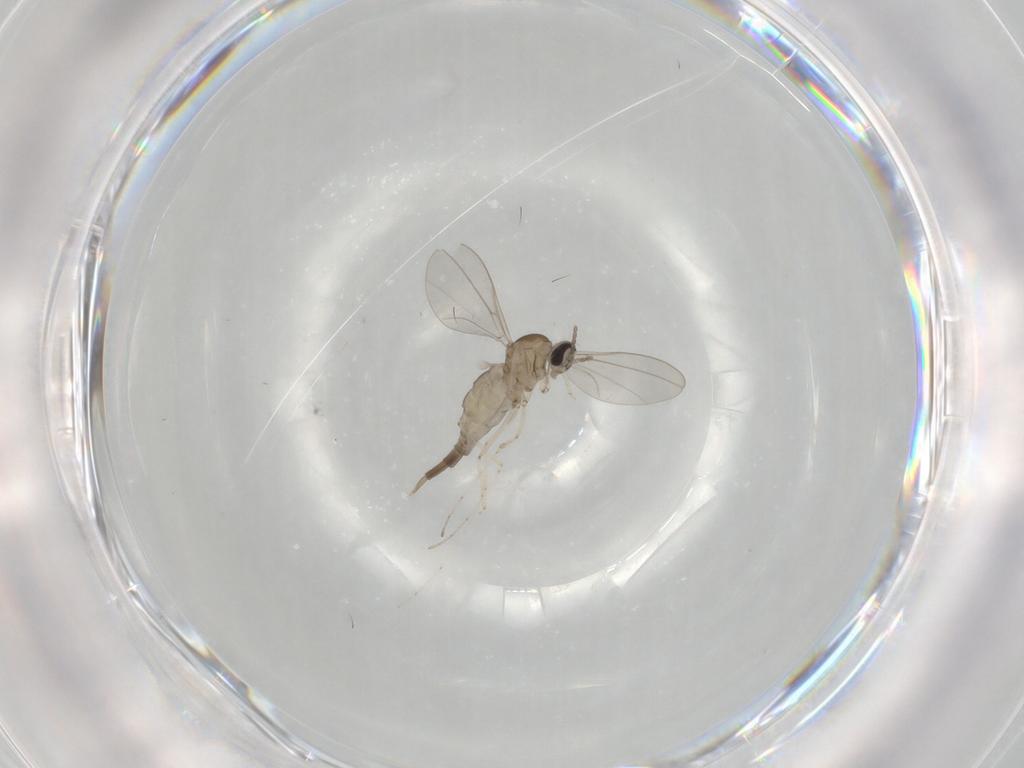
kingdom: Animalia
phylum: Arthropoda
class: Insecta
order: Diptera
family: Cecidomyiidae
